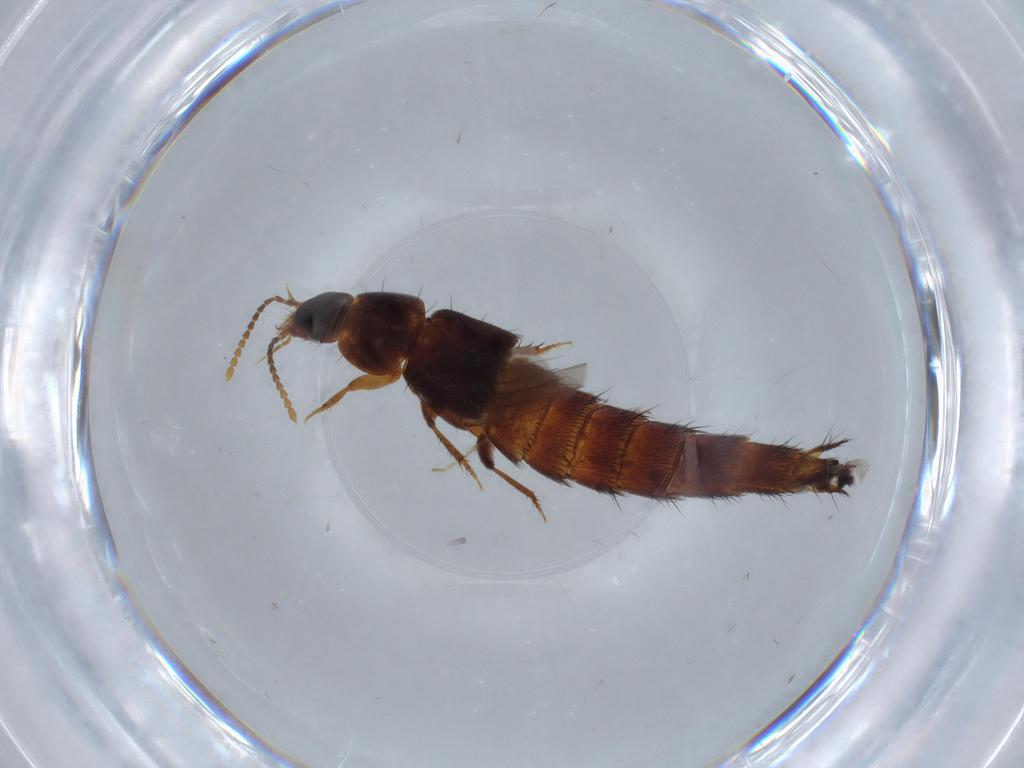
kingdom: Animalia
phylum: Arthropoda
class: Insecta
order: Coleoptera
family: Staphylinidae
